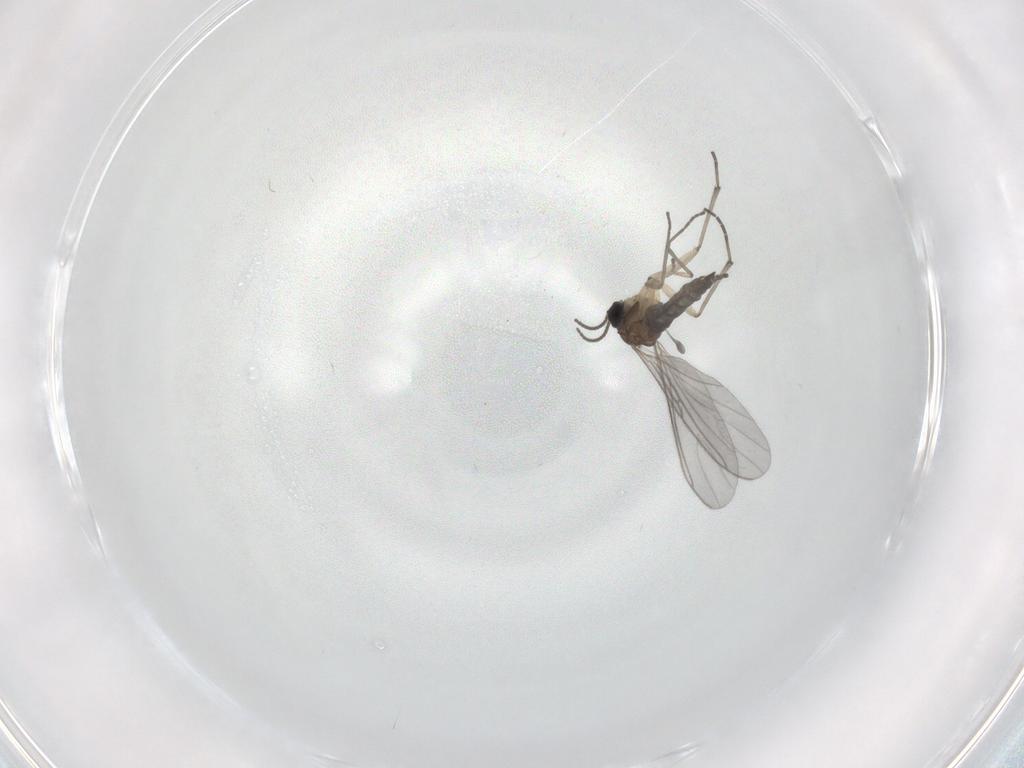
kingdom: Animalia
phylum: Arthropoda
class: Insecta
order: Diptera
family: Sciaridae
